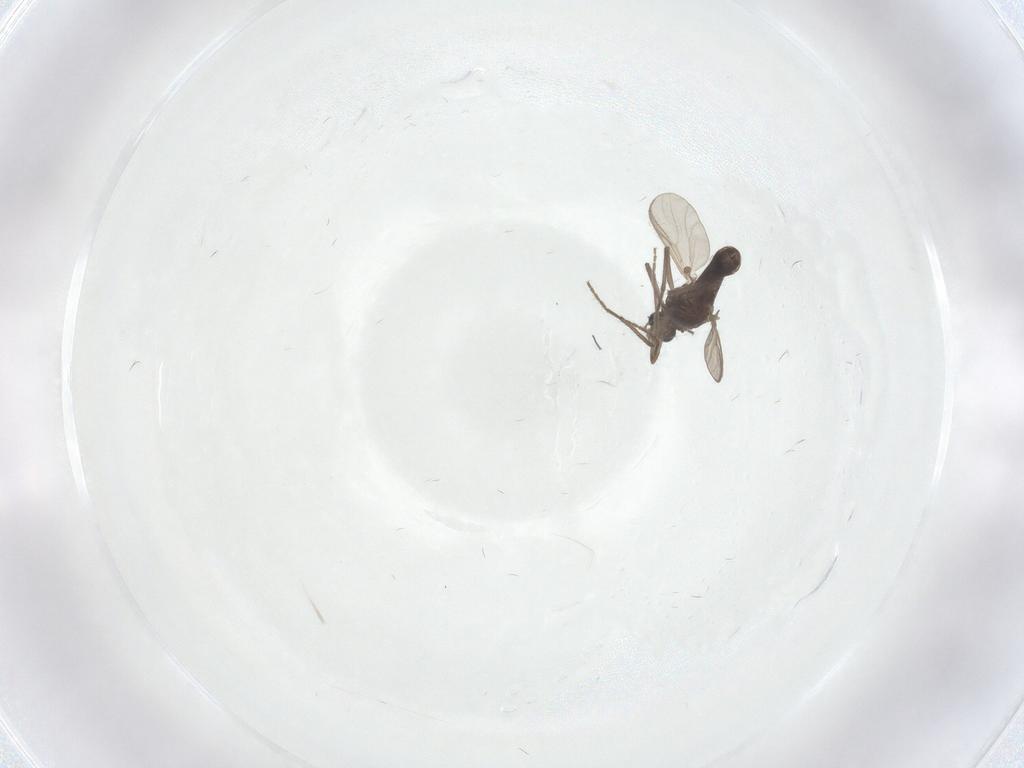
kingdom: Animalia
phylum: Arthropoda
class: Insecta
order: Diptera
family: Chironomidae
